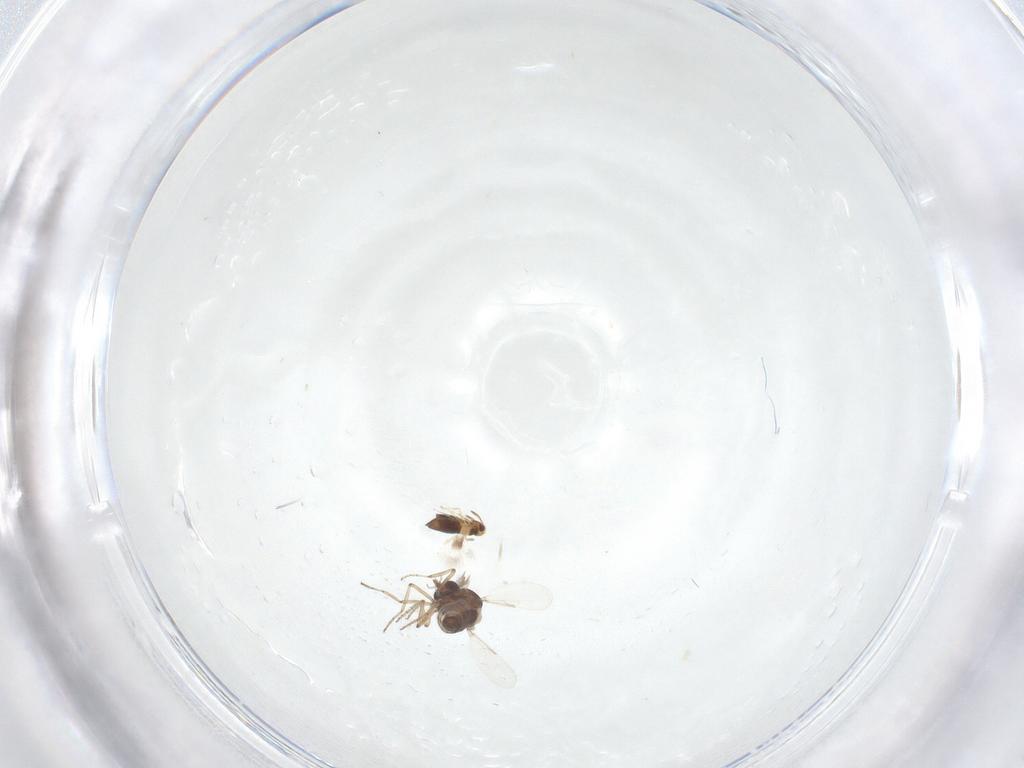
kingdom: Animalia
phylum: Arthropoda
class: Insecta
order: Diptera
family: Ceratopogonidae
